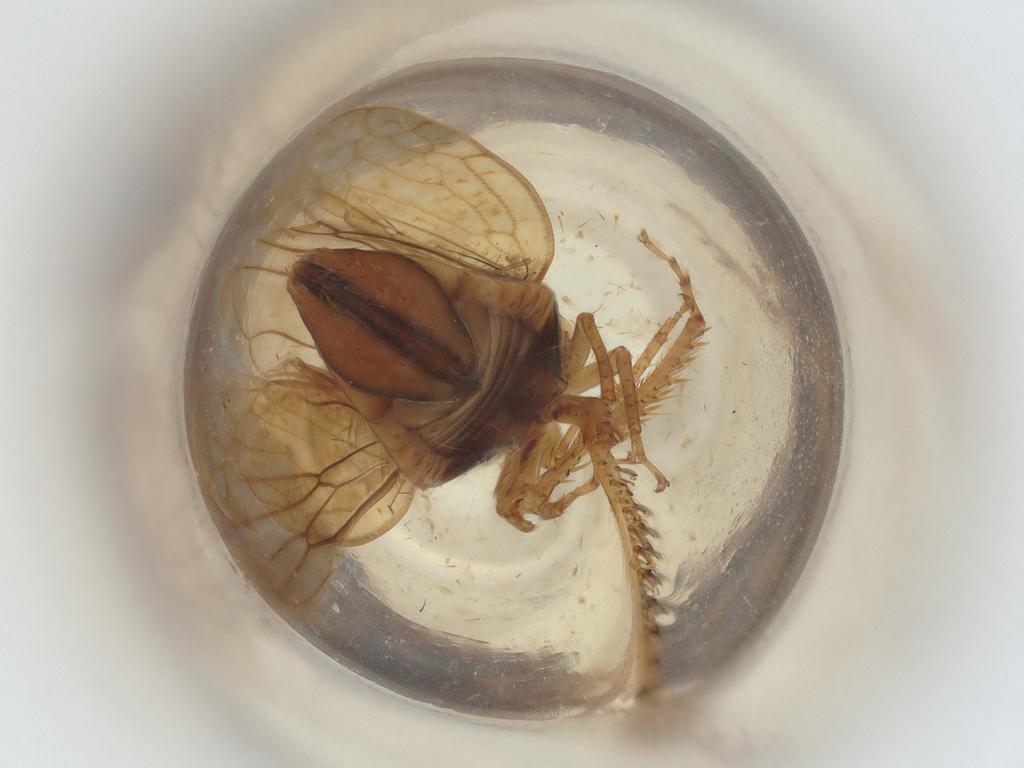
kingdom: Animalia
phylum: Arthropoda
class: Insecta
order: Hemiptera
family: Cicadellidae
